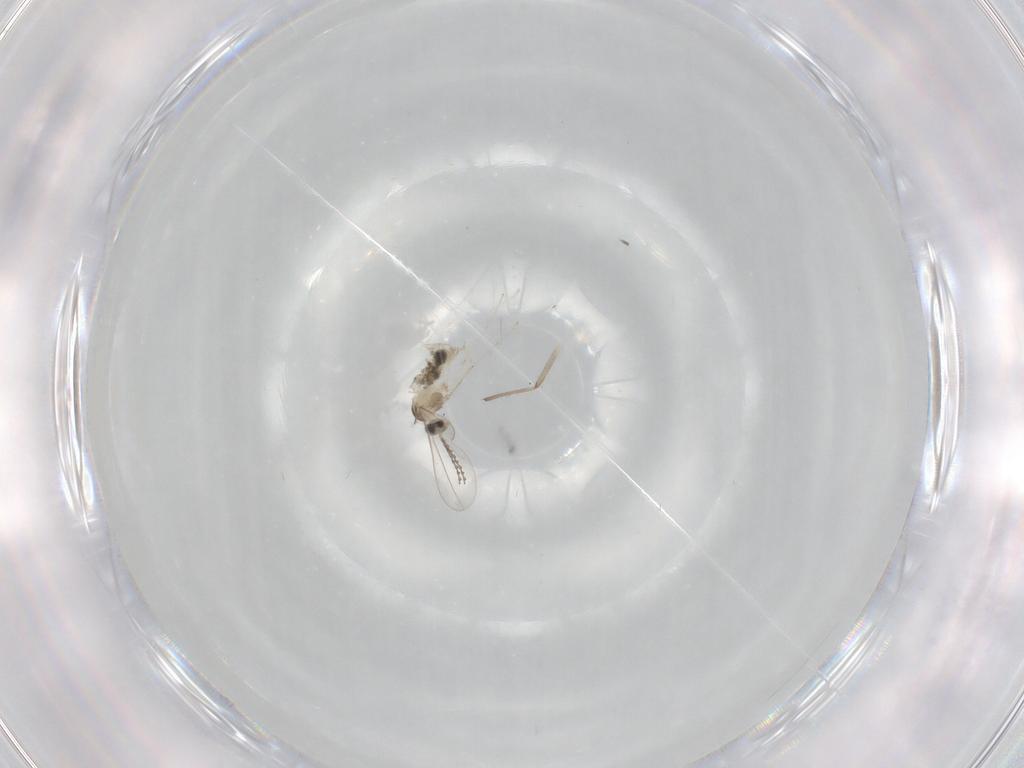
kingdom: Animalia
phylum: Arthropoda
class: Insecta
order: Diptera
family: Cecidomyiidae
